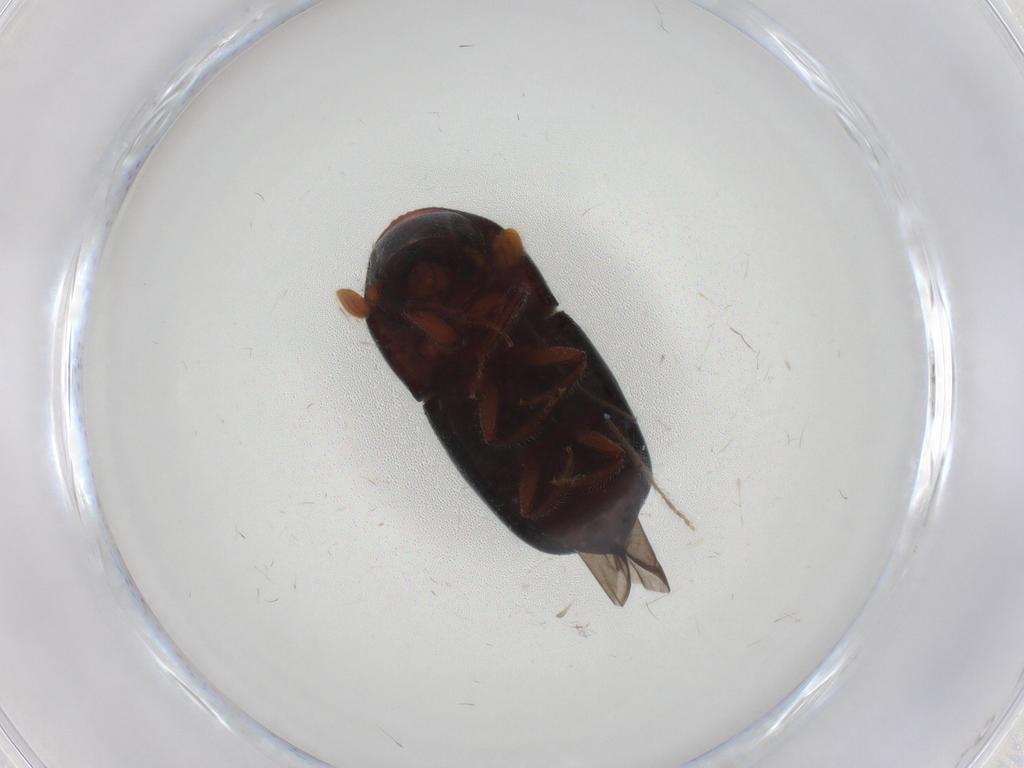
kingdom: Animalia
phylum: Arthropoda
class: Insecta
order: Coleoptera
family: Curculionidae
